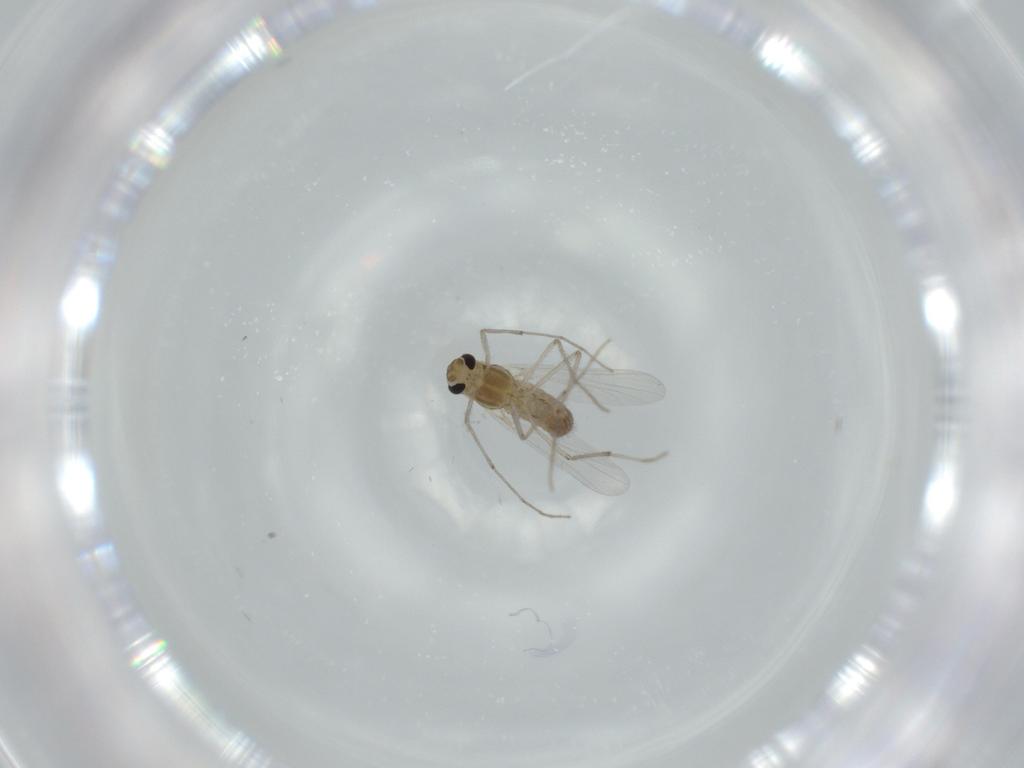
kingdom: Animalia
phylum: Arthropoda
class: Insecta
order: Diptera
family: Chironomidae
